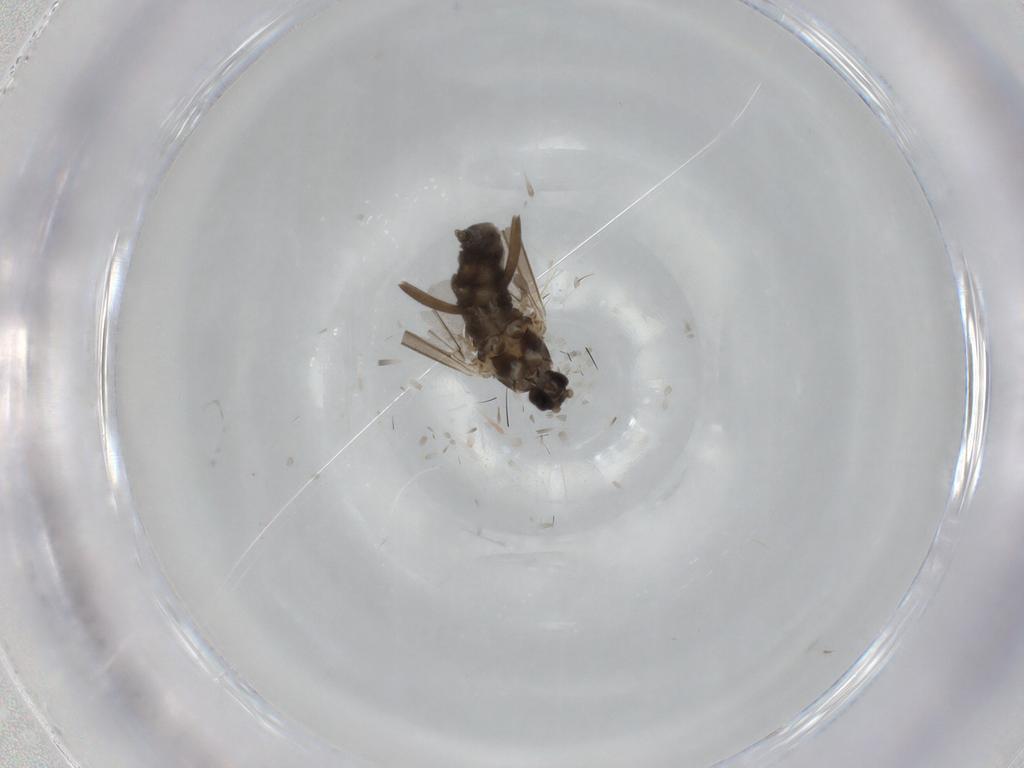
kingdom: Animalia
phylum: Arthropoda
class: Insecta
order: Diptera
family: Cecidomyiidae
